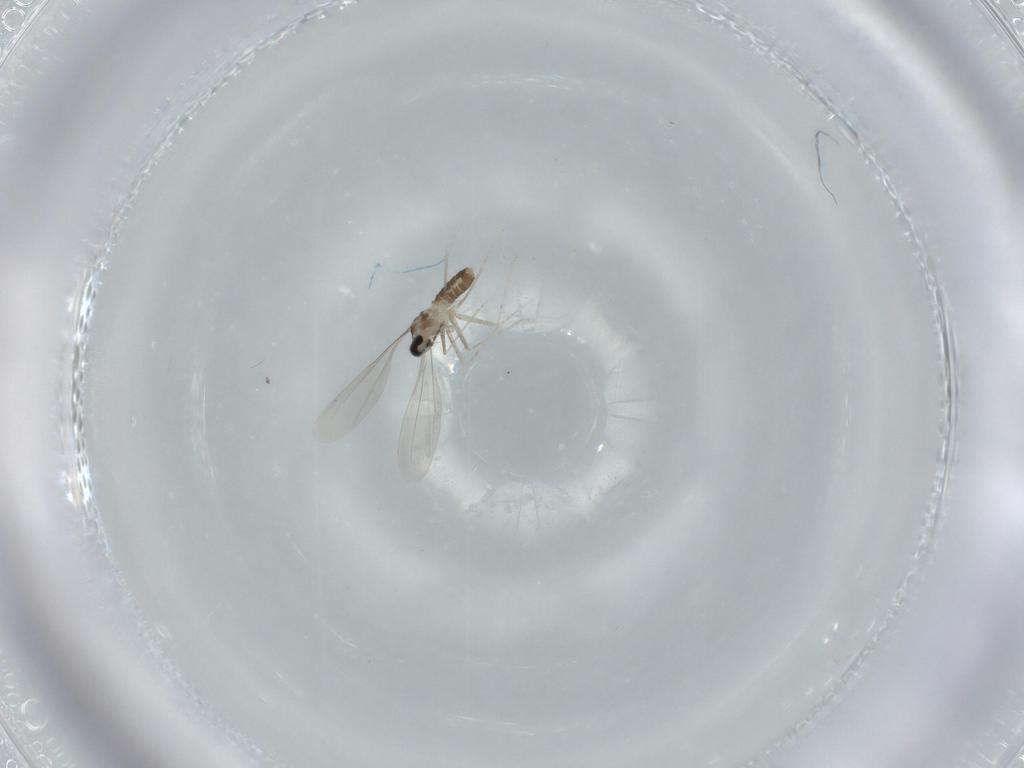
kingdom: Animalia
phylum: Arthropoda
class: Insecta
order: Diptera
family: Cecidomyiidae
